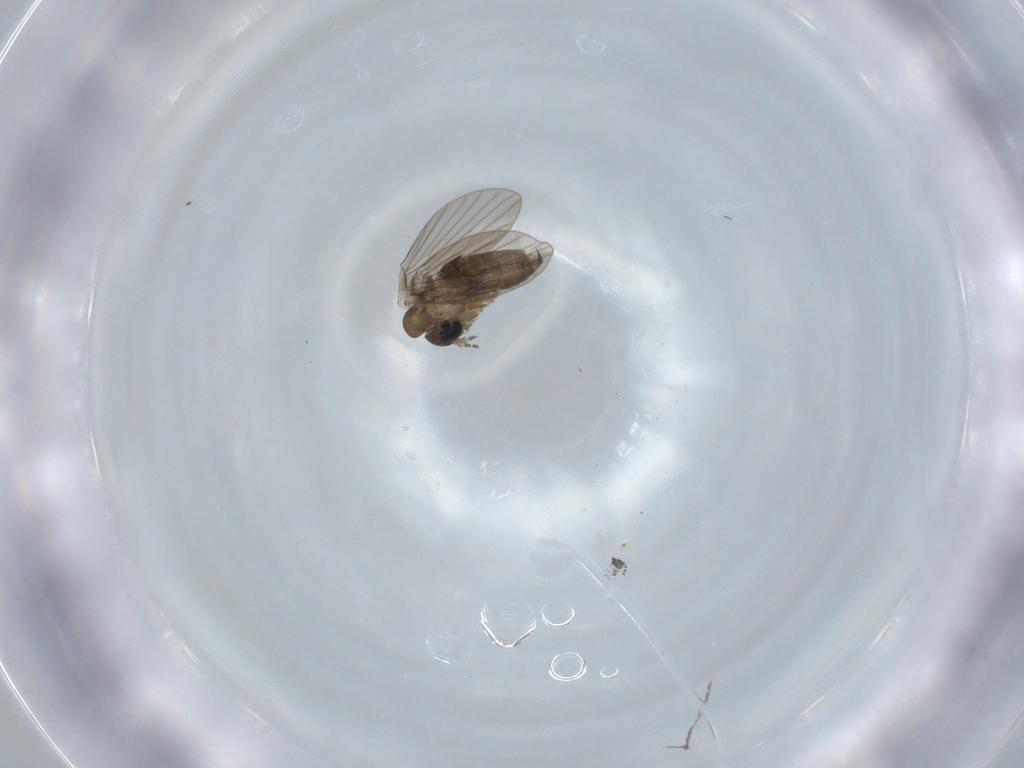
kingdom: Animalia
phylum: Arthropoda
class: Insecta
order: Diptera
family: Psychodidae
